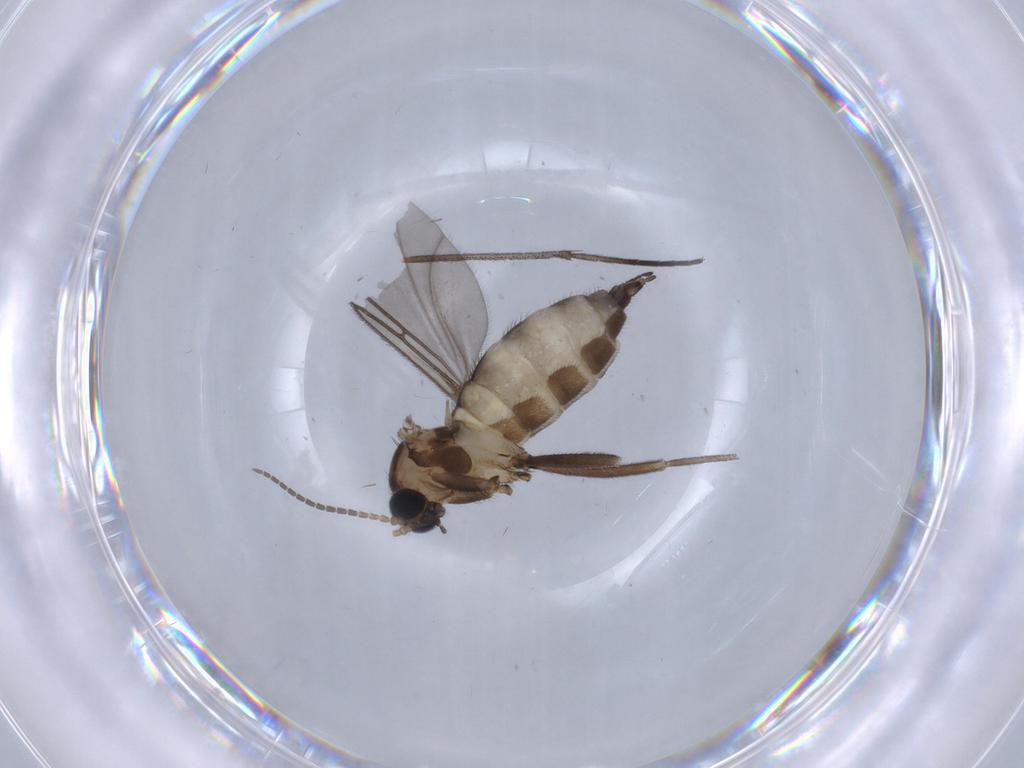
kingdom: Animalia
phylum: Arthropoda
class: Insecta
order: Diptera
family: Sciaridae
